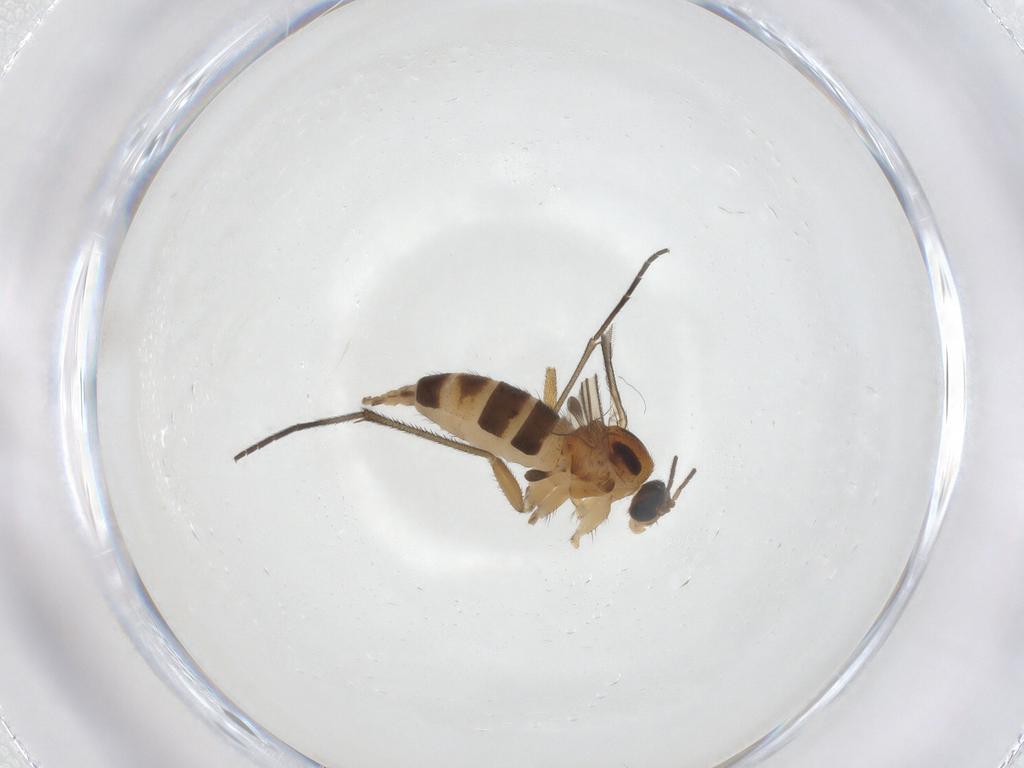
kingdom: Animalia
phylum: Arthropoda
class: Insecta
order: Diptera
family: Sciaridae
